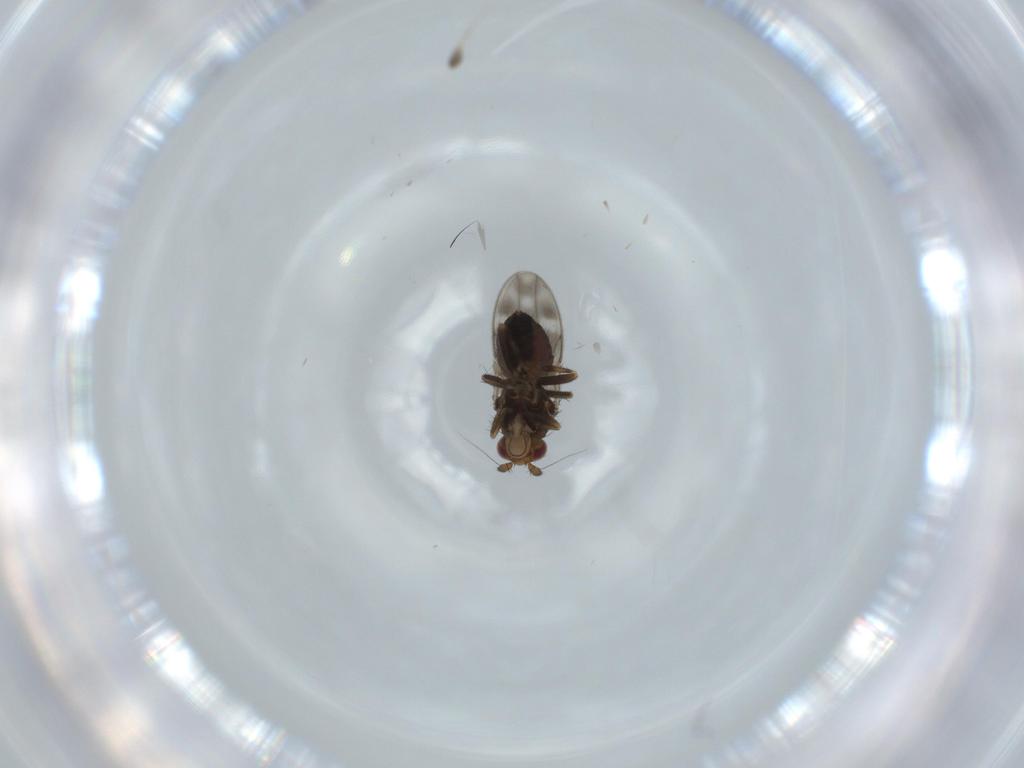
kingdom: Animalia
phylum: Arthropoda
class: Insecta
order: Diptera
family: Sphaeroceridae
